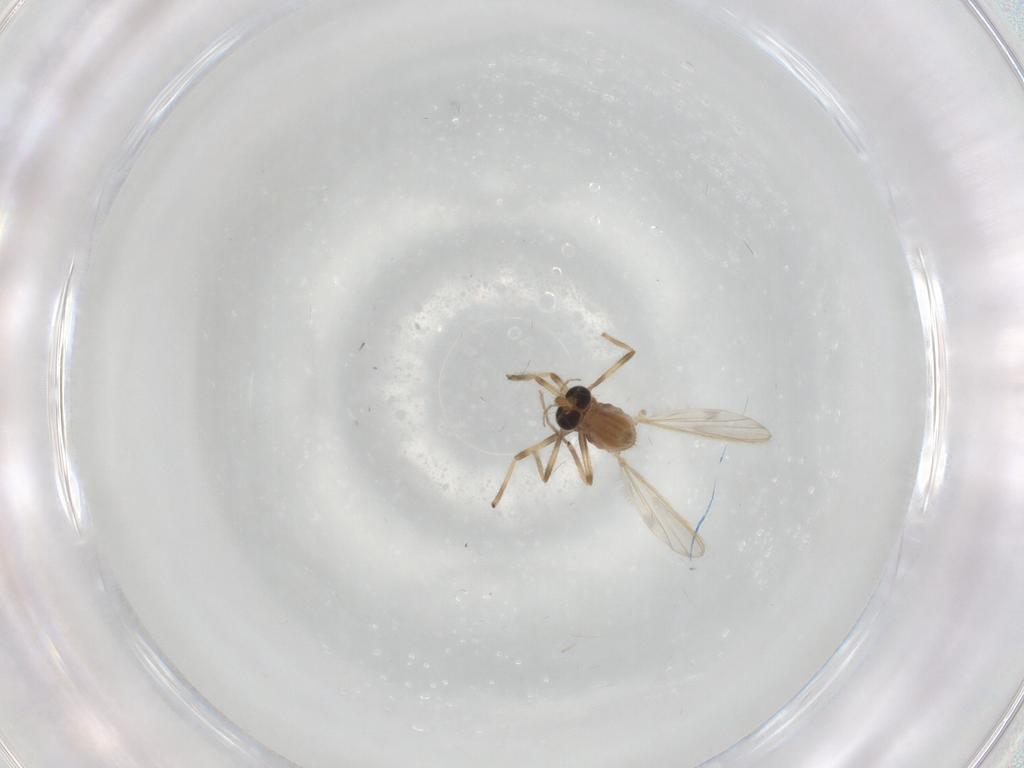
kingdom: Animalia
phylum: Arthropoda
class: Insecta
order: Diptera
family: Chironomidae
